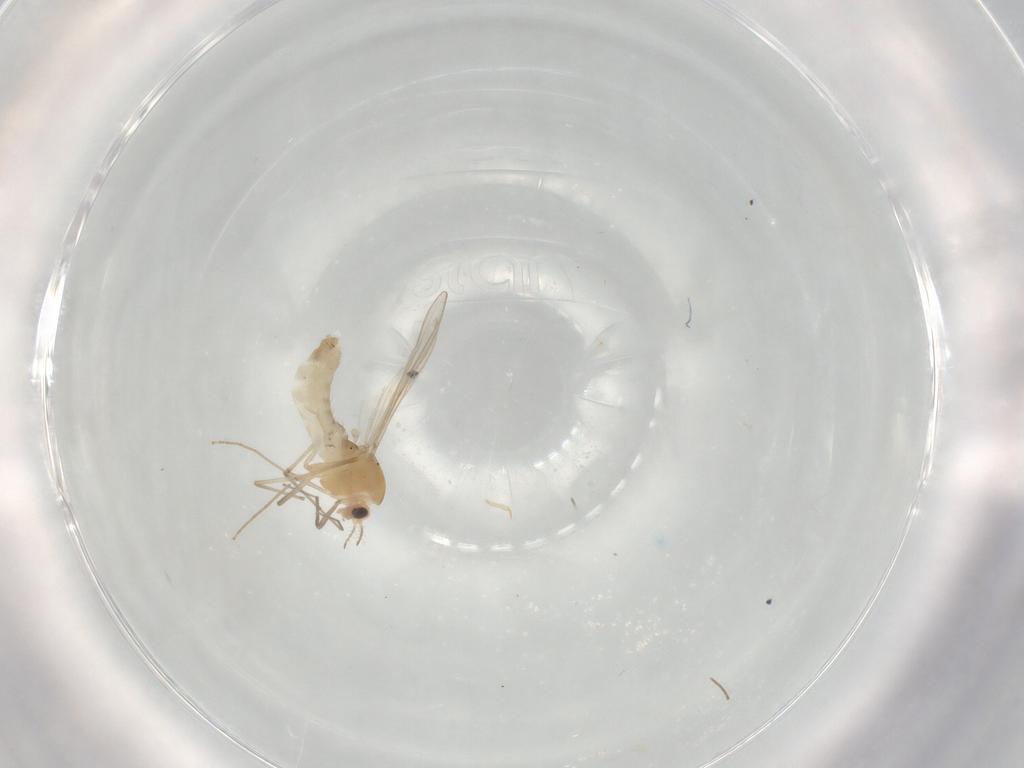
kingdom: Animalia
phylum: Arthropoda
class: Insecta
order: Diptera
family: Chironomidae
